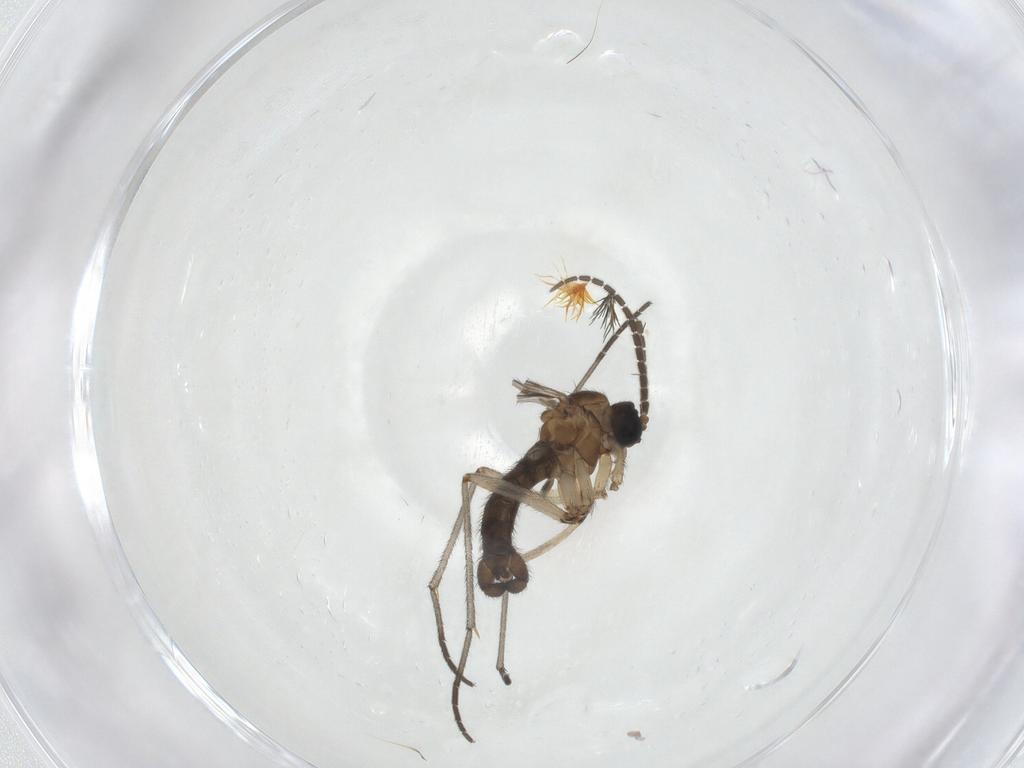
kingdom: Animalia
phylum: Arthropoda
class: Insecta
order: Diptera
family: Sciaridae
